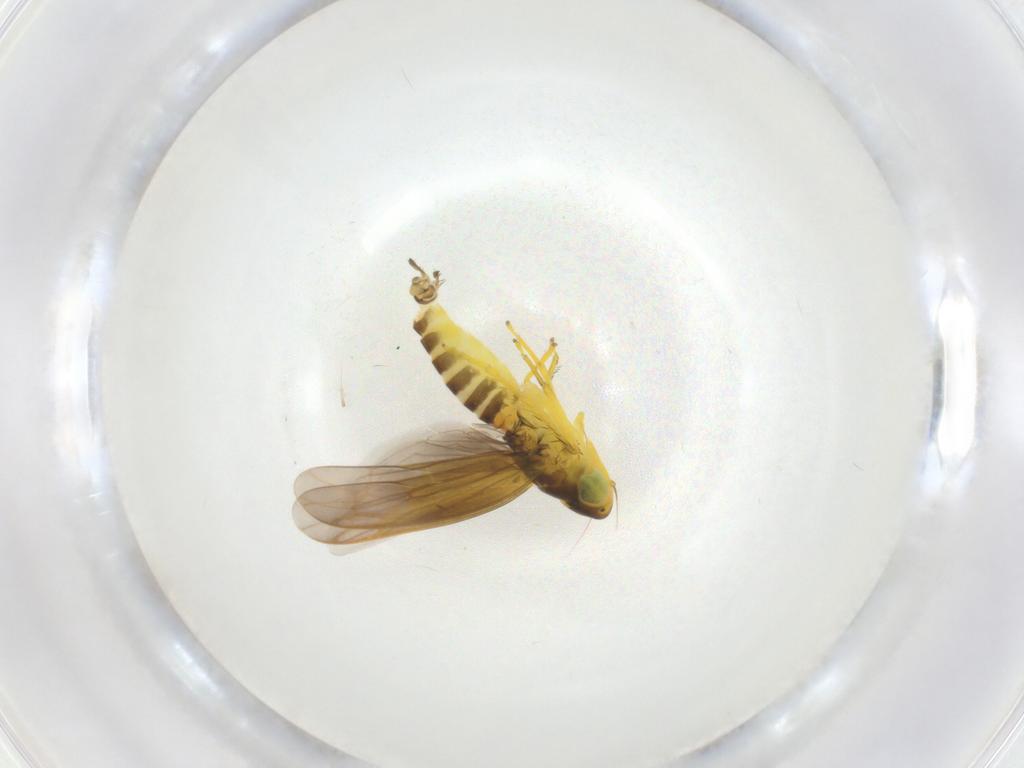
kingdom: Animalia
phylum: Arthropoda
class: Insecta
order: Hemiptera
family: Cicadellidae
